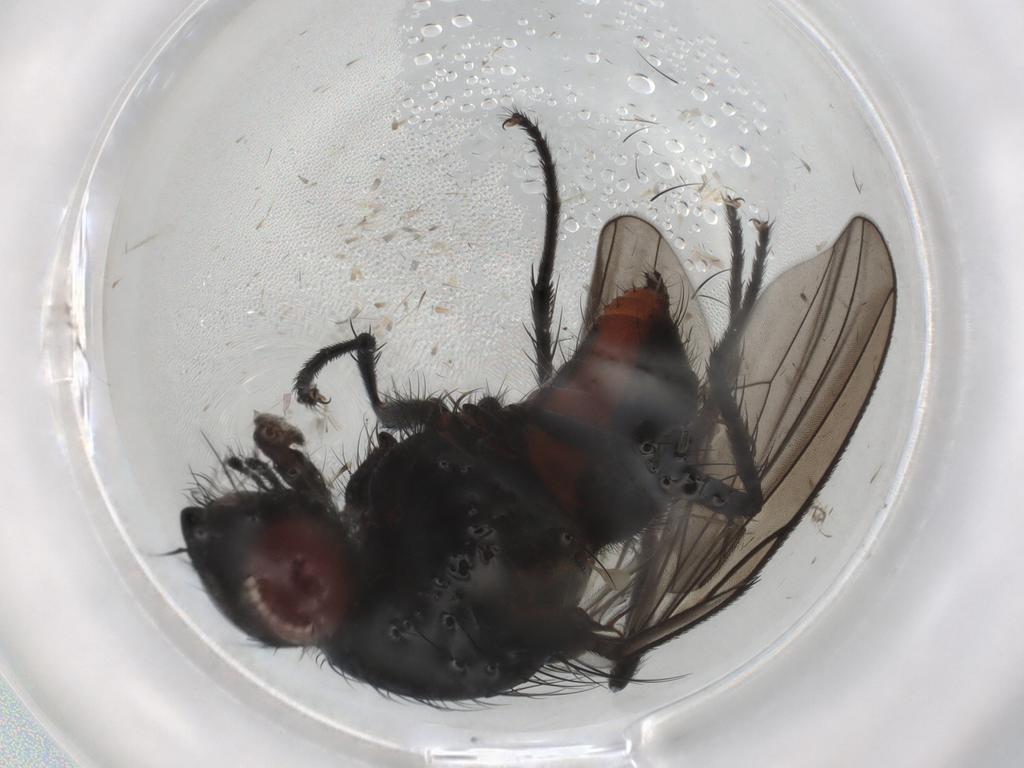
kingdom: Animalia
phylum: Arthropoda
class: Insecta
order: Diptera
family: Anthomyiidae
